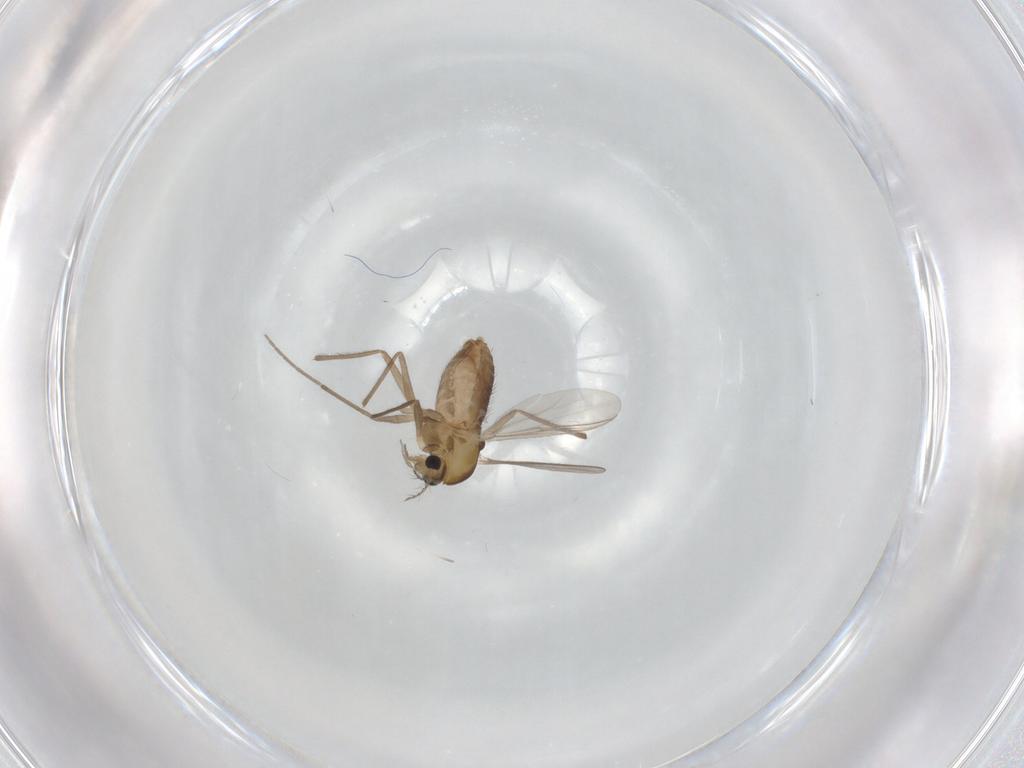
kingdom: Animalia
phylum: Arthropoda
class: Insecta
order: Diptera
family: Chironomidae
